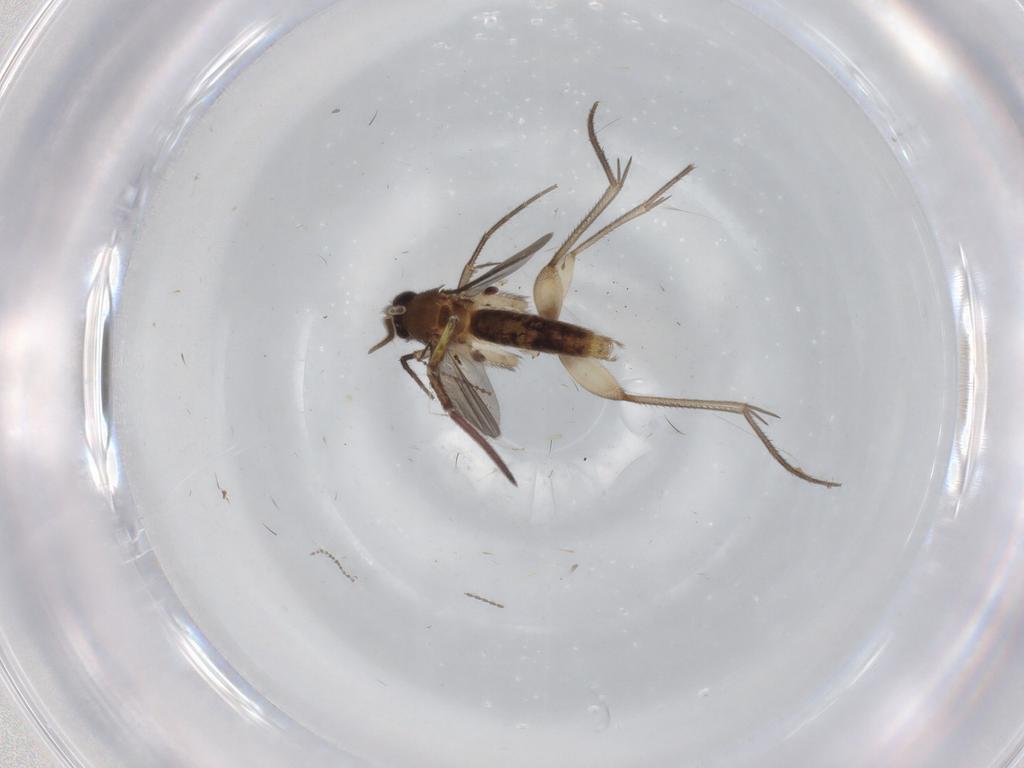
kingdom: Animalia
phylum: Arthropoda
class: Insecta
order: Diptera
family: Mycetophilidae
